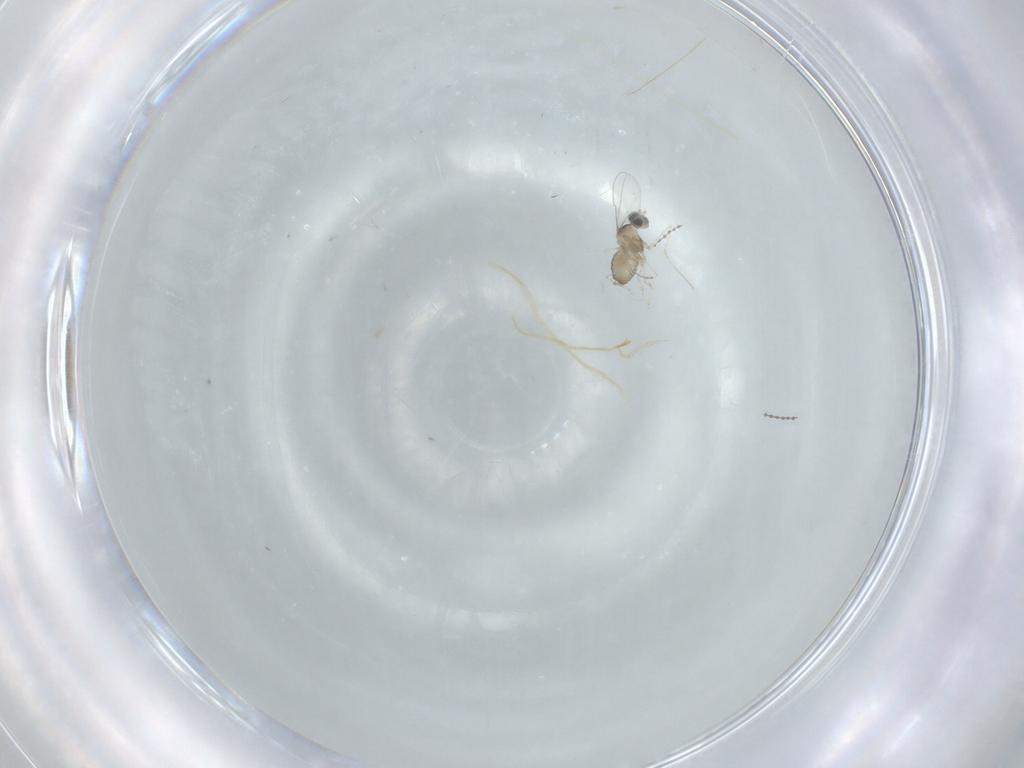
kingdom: Animalia
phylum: Arthropoda
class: Insecta
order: Diptera
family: Cecidomyiidae
